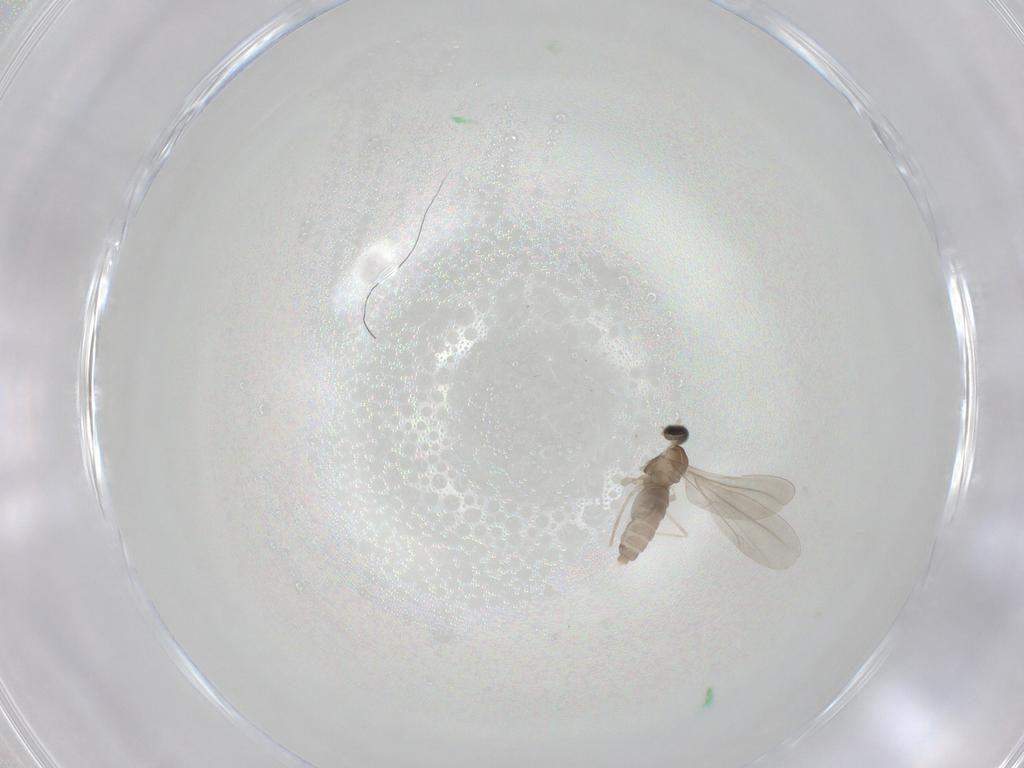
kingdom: Animalia
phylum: Arthropoda
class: Insecta
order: Diptera
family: Cecidomyiidae
